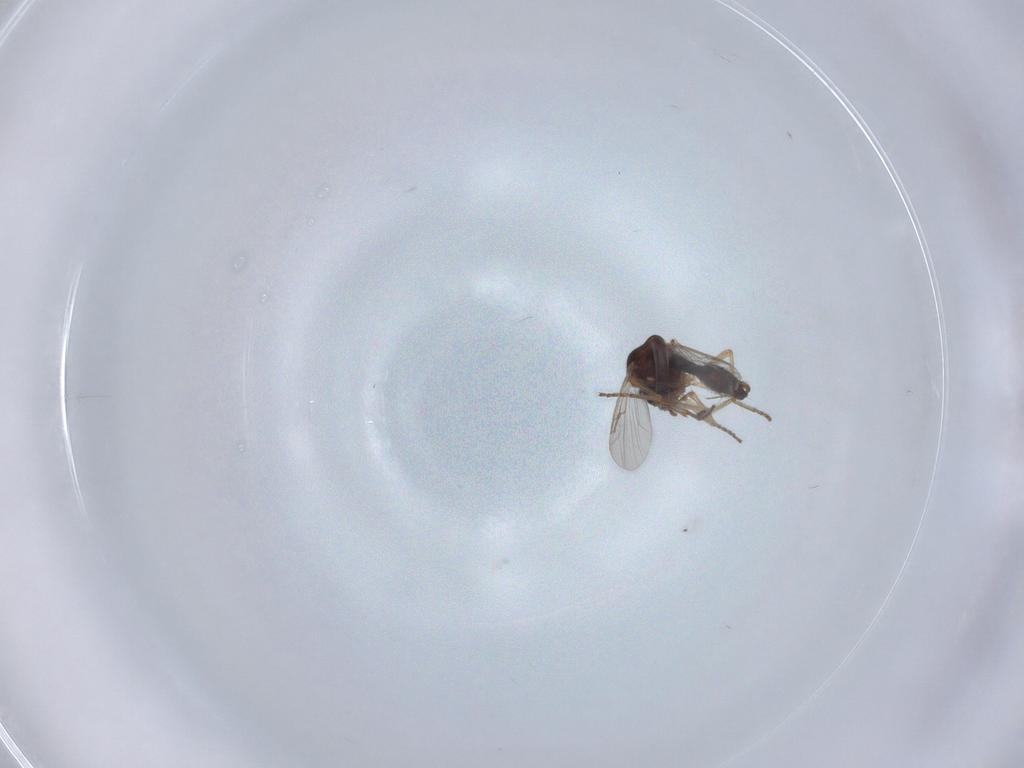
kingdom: Animalia
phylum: Arthropoda
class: Insecta
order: Diptera
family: Ceratopogonidae
